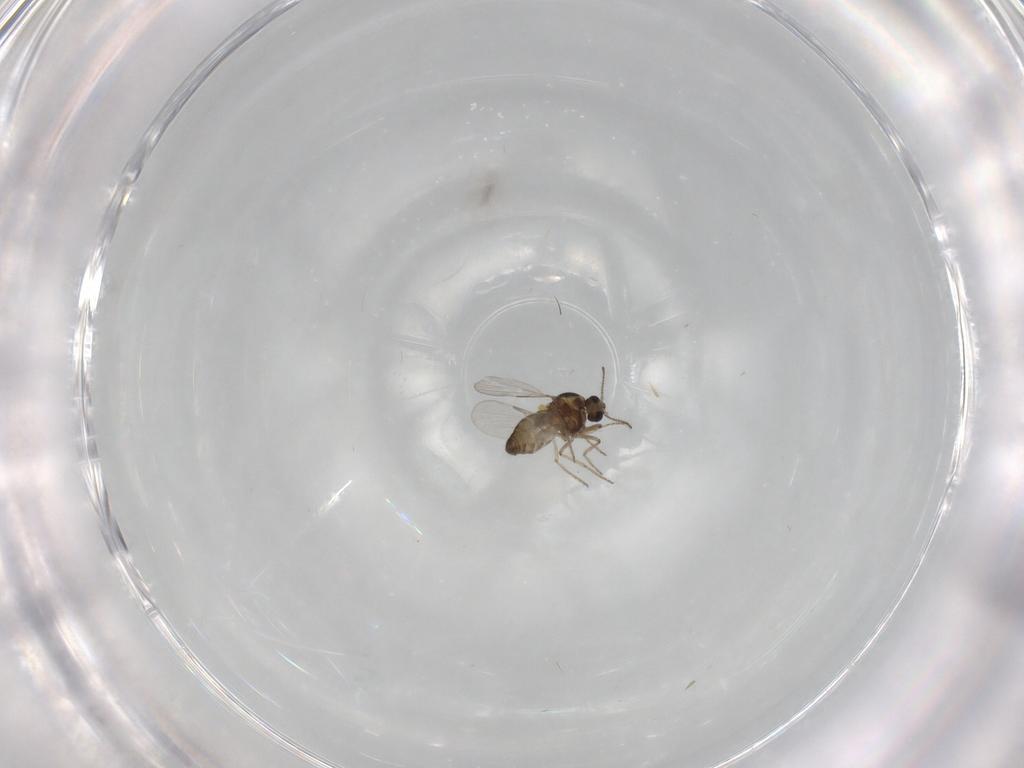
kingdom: Animalia
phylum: Arthropoda
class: Insecta
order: Diptera
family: Ceratopogonidae
